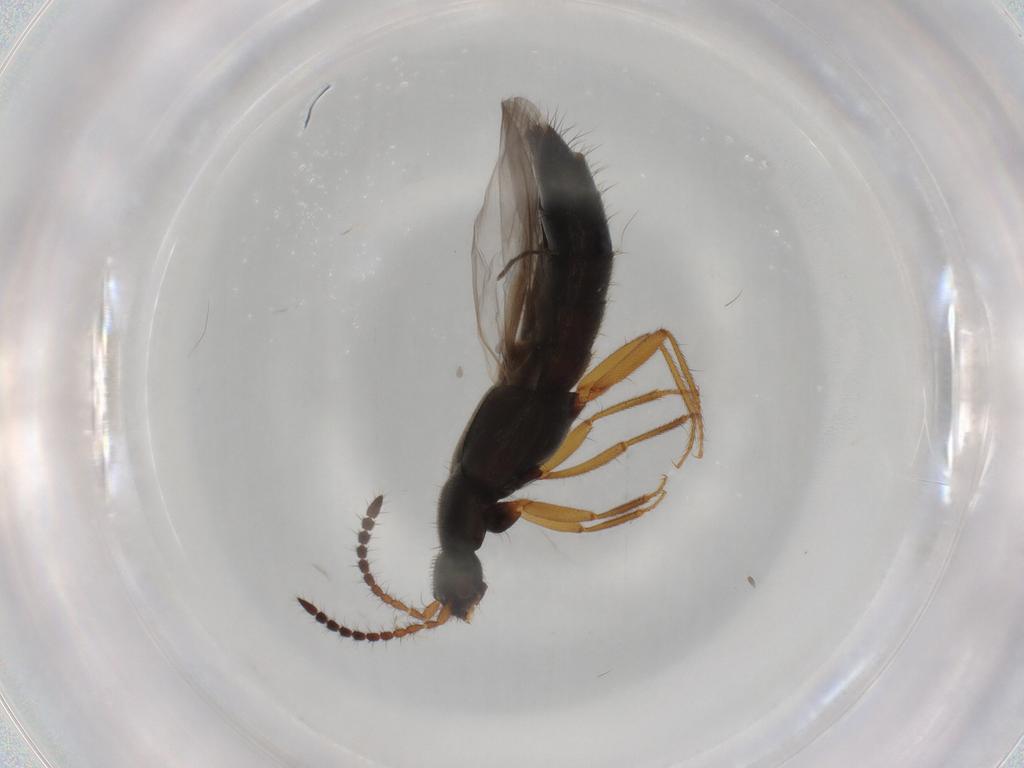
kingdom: Animalia
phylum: Arthropoda
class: Insecta
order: Coleoptera
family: Staphylinidae
